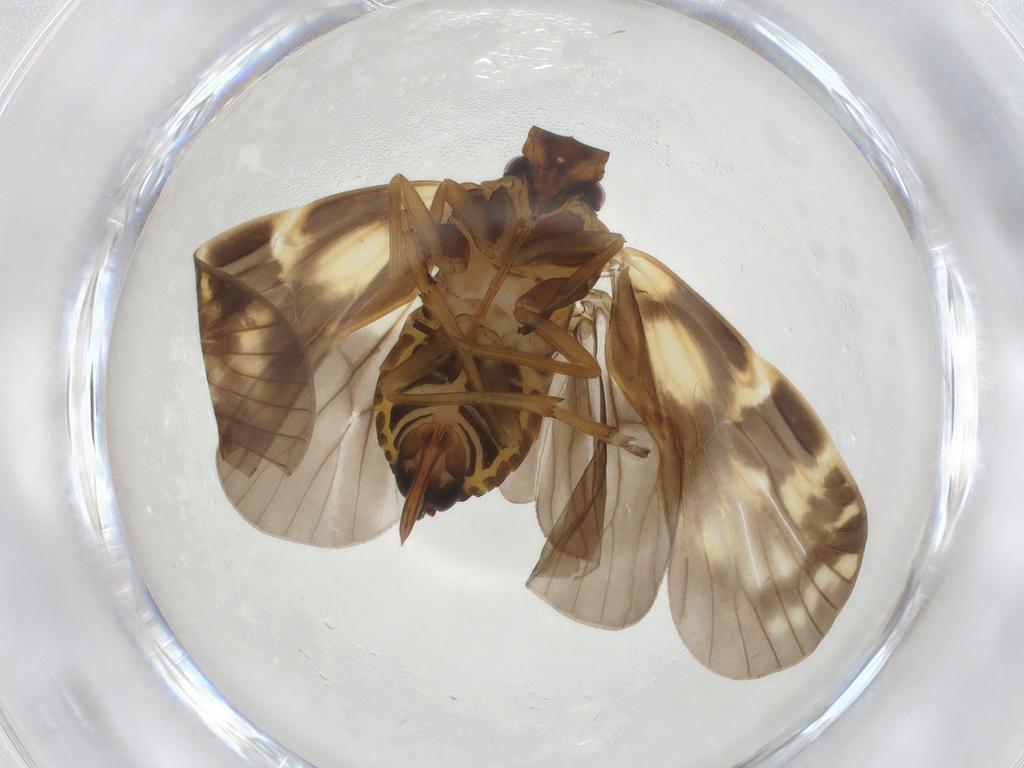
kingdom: Animalia
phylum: Arthropoda
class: Insecta
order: Hemiptera
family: Cixiidae
